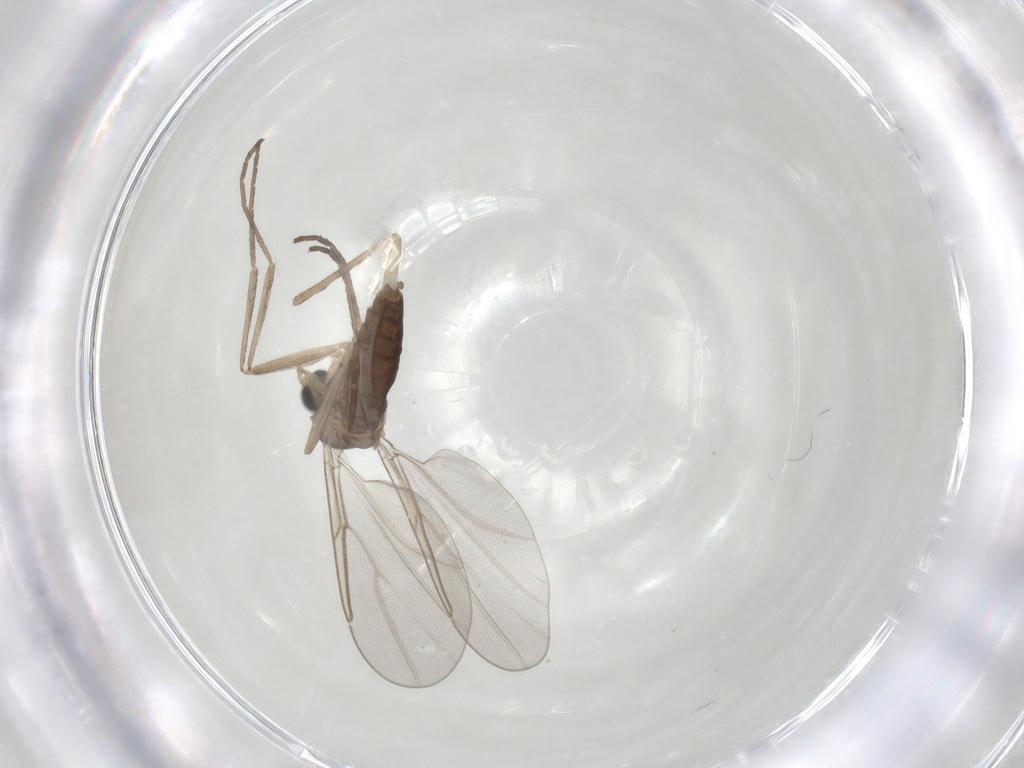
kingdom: Animalia
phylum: Arthropoda
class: Insecta
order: Diptera
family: Cecidomyiidae
